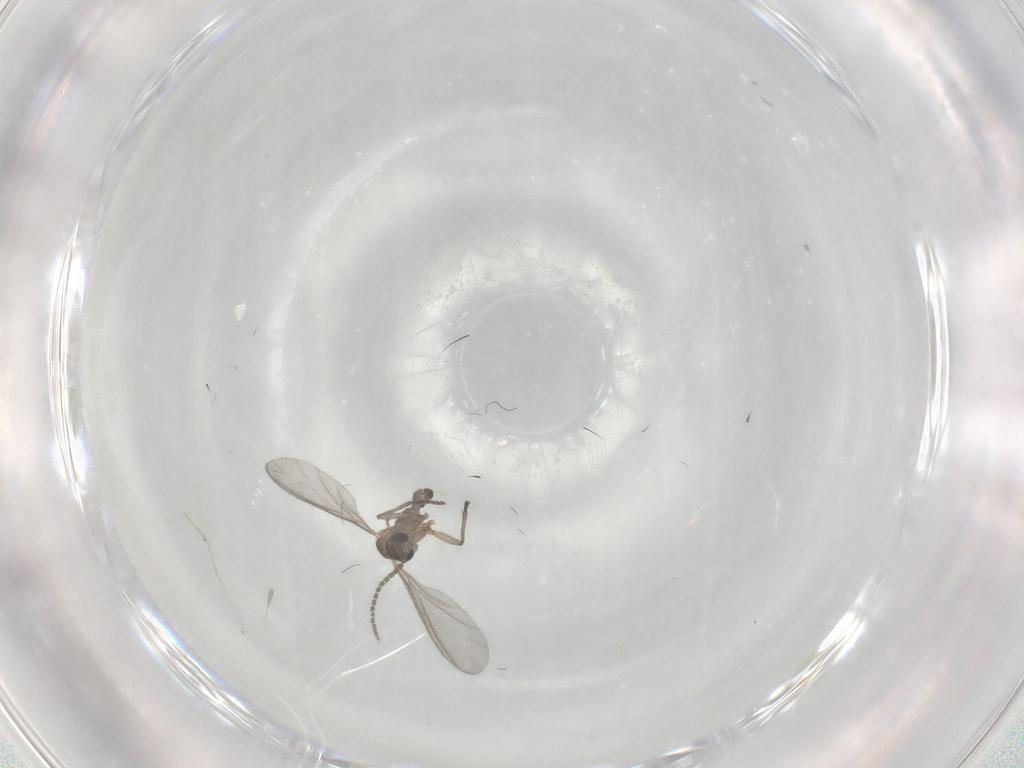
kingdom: Animalia
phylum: Arthropoda
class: Insecta
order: Diptera
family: Sciaridae
